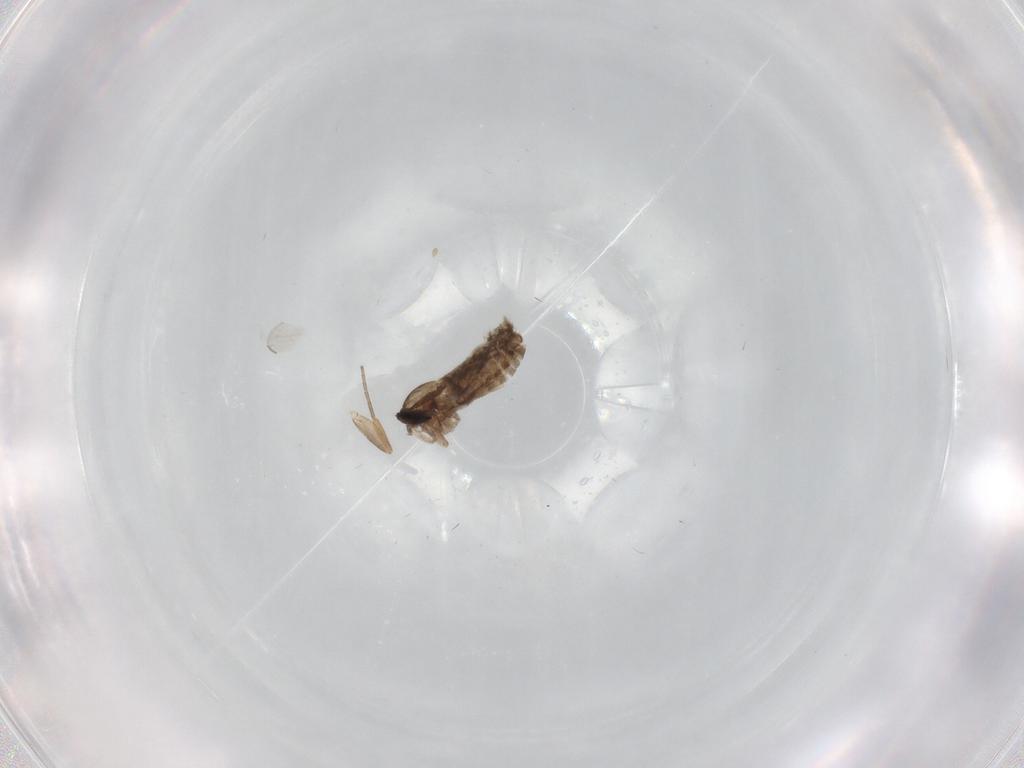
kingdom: Animalia
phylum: Arthropoda
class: Insecta
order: Diptera
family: Ceratopogonidae
